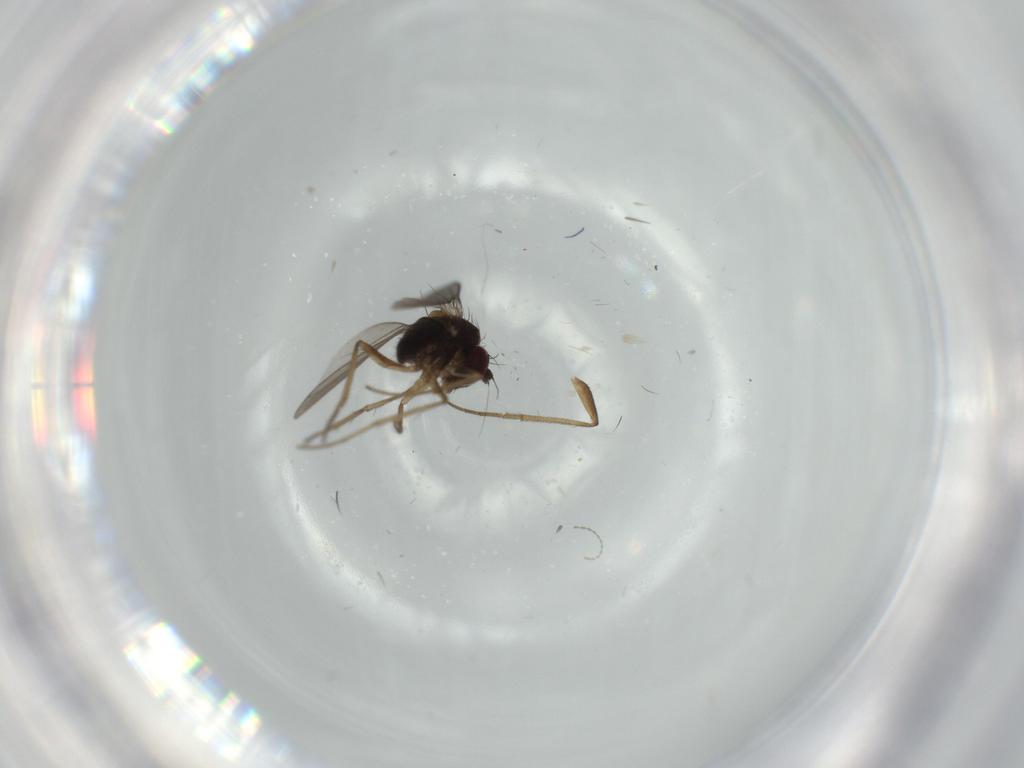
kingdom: Animalia
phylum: Arthropoda
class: Insecta
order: Diptera
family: Dolichopodidae
